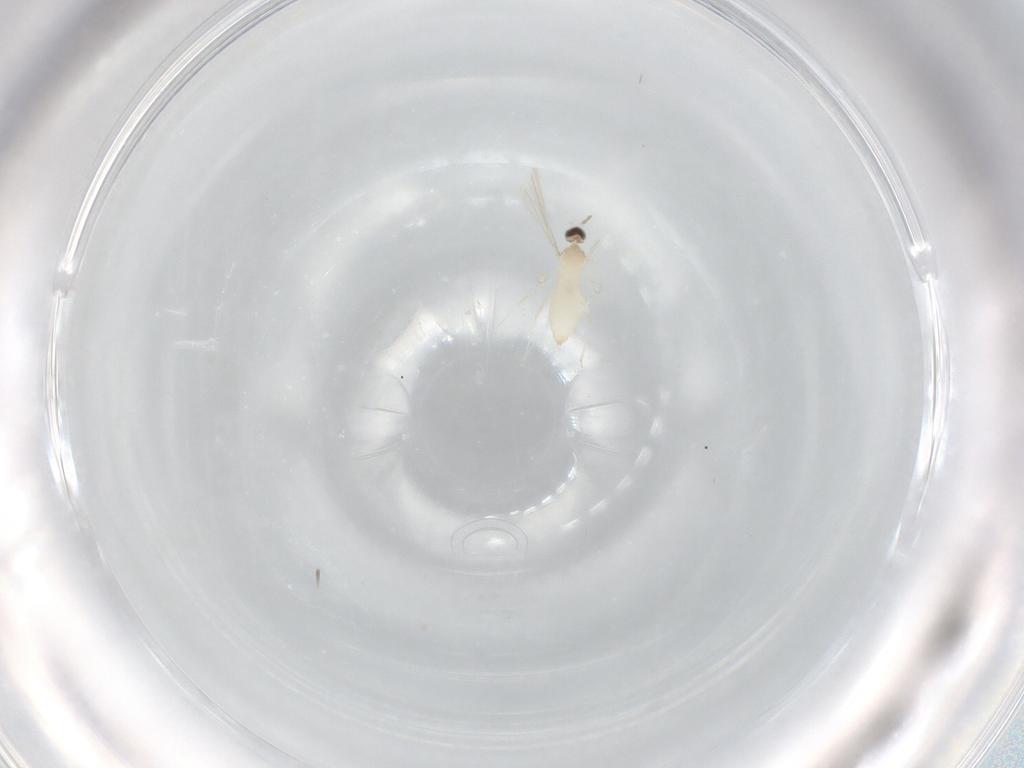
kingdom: Animalia
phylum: Arthropoda
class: Insecta
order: Diptera
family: Cecidomyiidae
